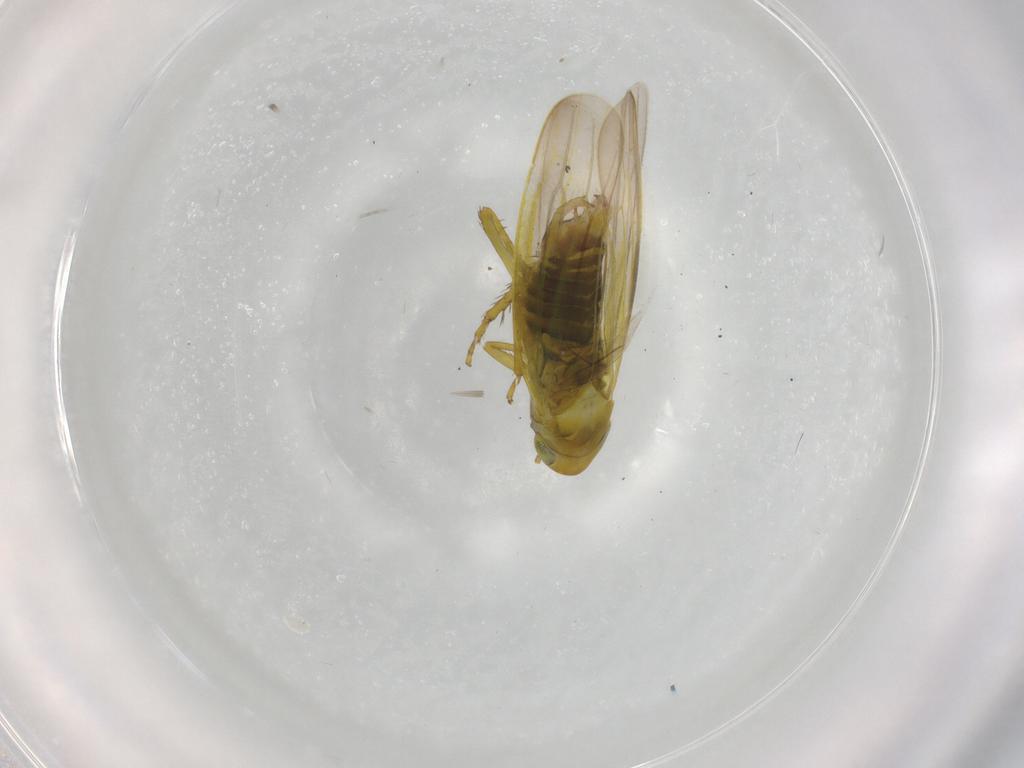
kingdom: Animalia
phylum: Arthropoda
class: Insecta
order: Hemiptera
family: Cicadellidae
